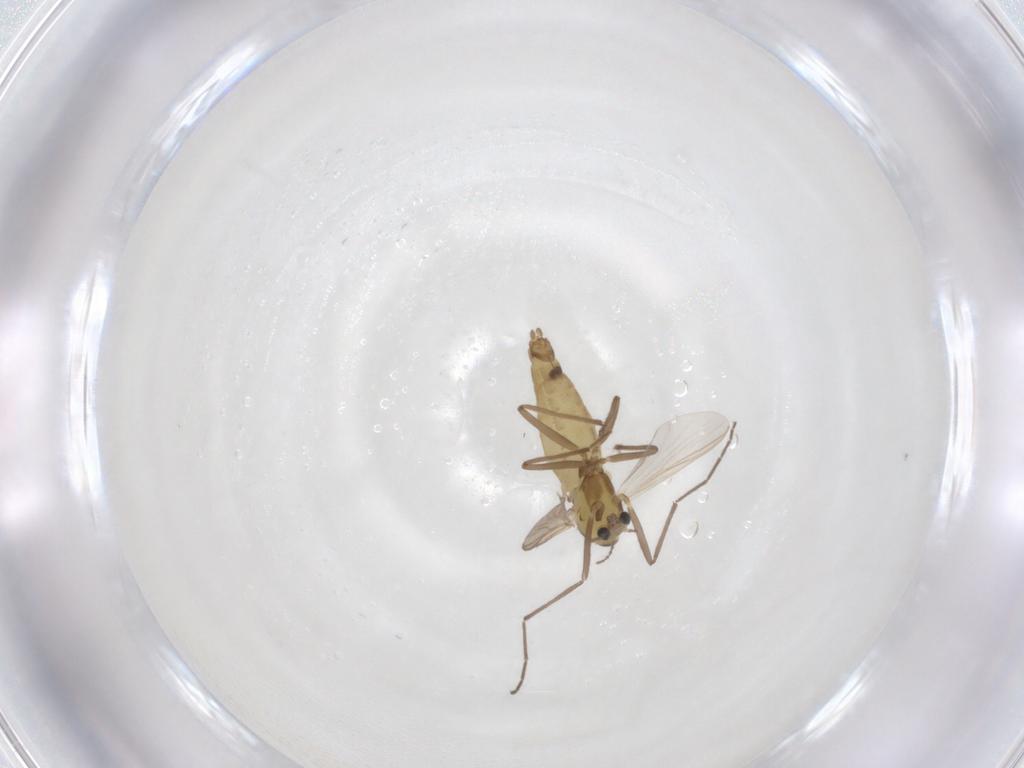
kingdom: Animalia
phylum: Arthropoda
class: Insecta
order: Diptera
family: Chironomidae
